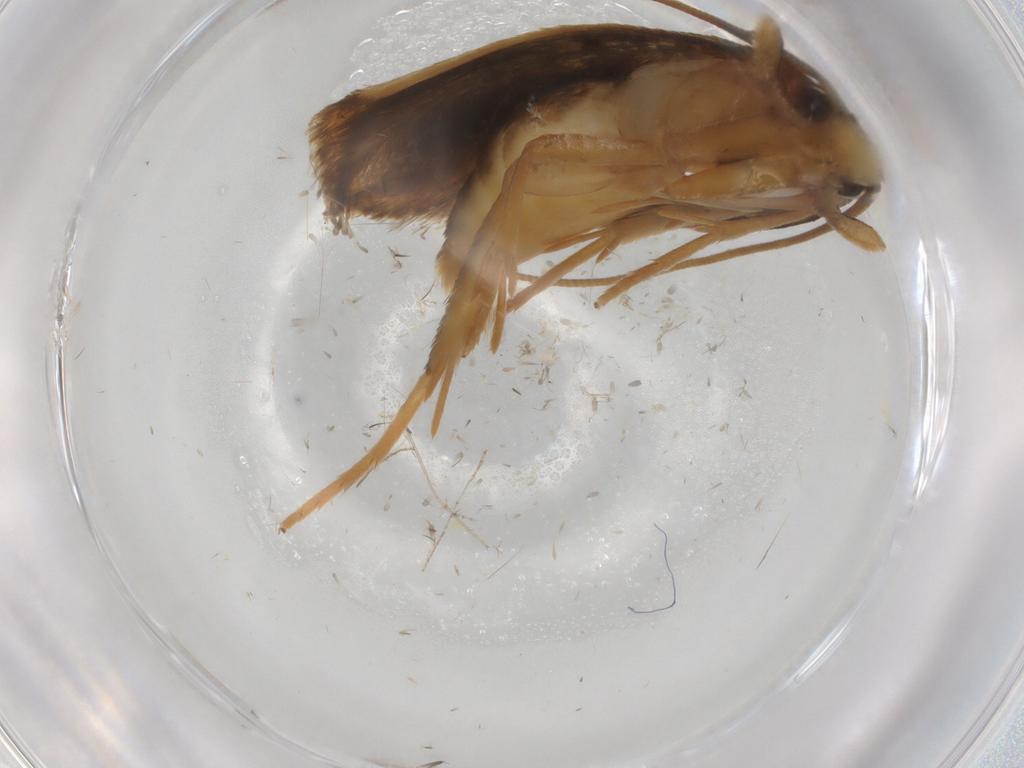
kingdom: Animalia
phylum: Arthropoda
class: Insecta
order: Lepidoptera
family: Tineidae
